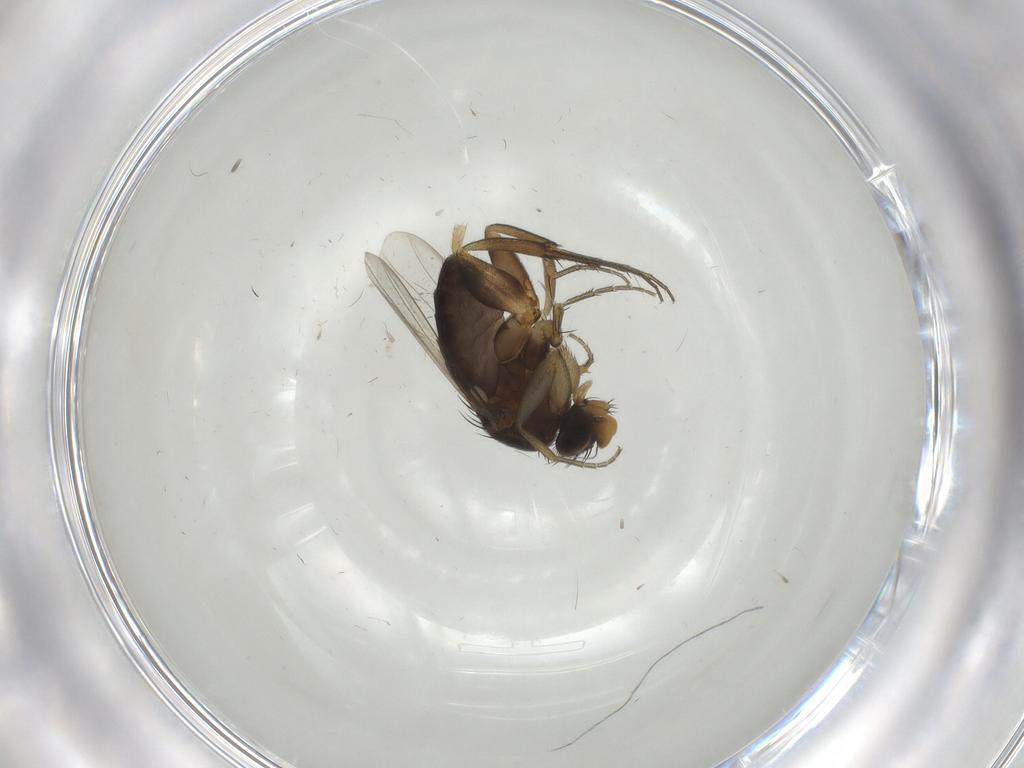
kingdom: Animalia
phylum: Arthropoda
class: Insecta
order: Diptera
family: Phoridae
